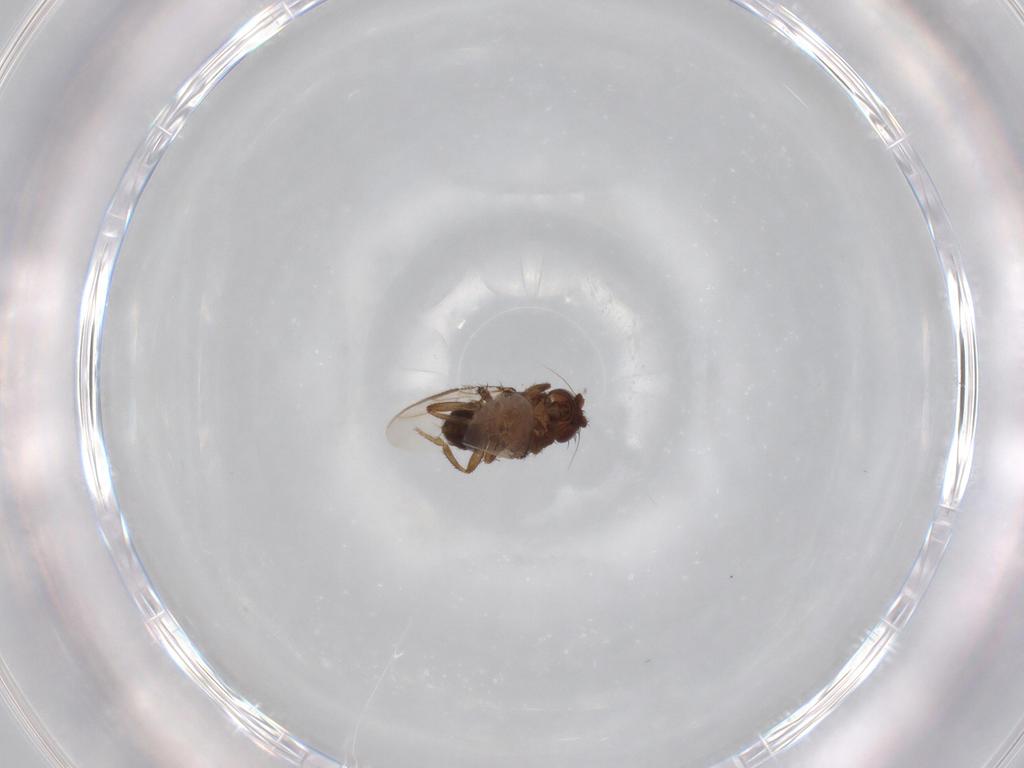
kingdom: Animalia
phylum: Arthropoda
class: Insecta
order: Diptera
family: Sphaeroceridae
